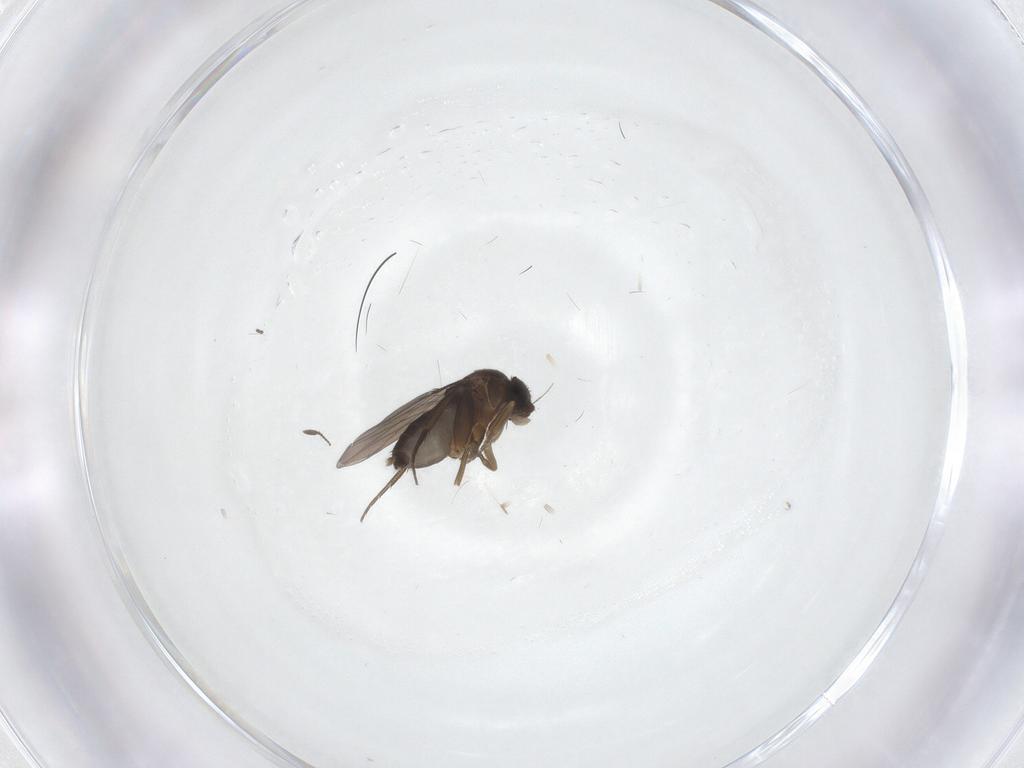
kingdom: Animalia
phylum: Arthropoda
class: Insecta
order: Diptera
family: Phoridae
